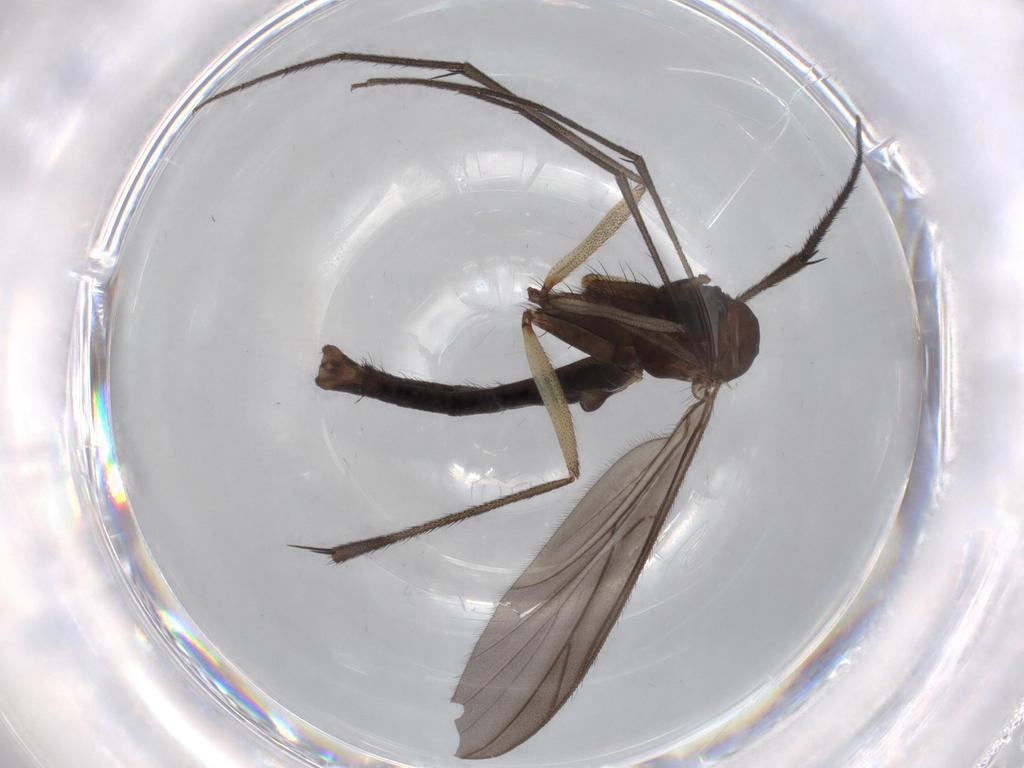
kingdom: Animalia
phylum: Arthropoda
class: Insecta
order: Diptera
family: Ditomyiidae
